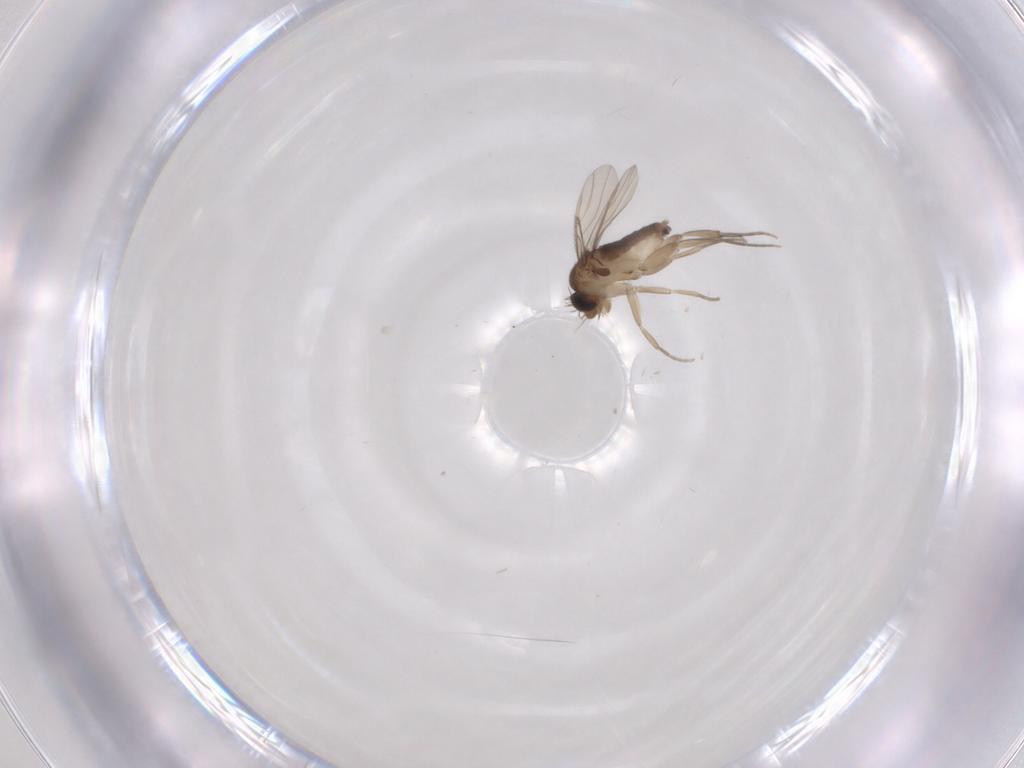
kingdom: Animalia
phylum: Arthropoda
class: Insecta
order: Diptera
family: Phoridae
